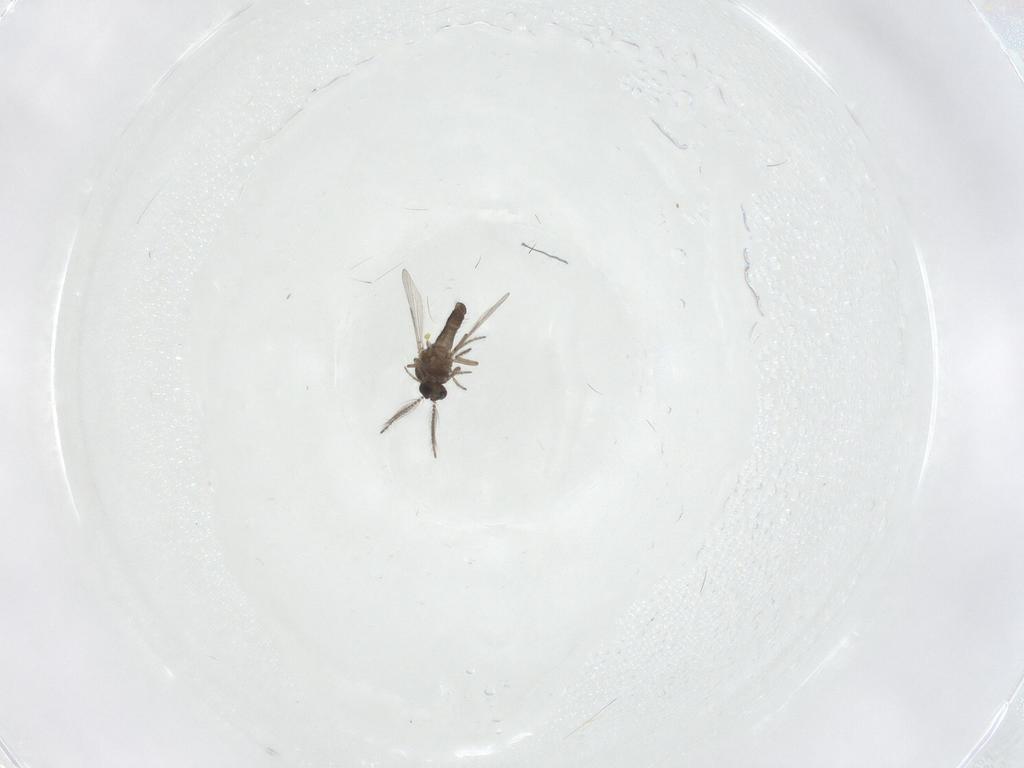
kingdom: Animalia
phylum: Arthropoda
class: Insecta
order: Diptera
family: Ceratopogonidae
